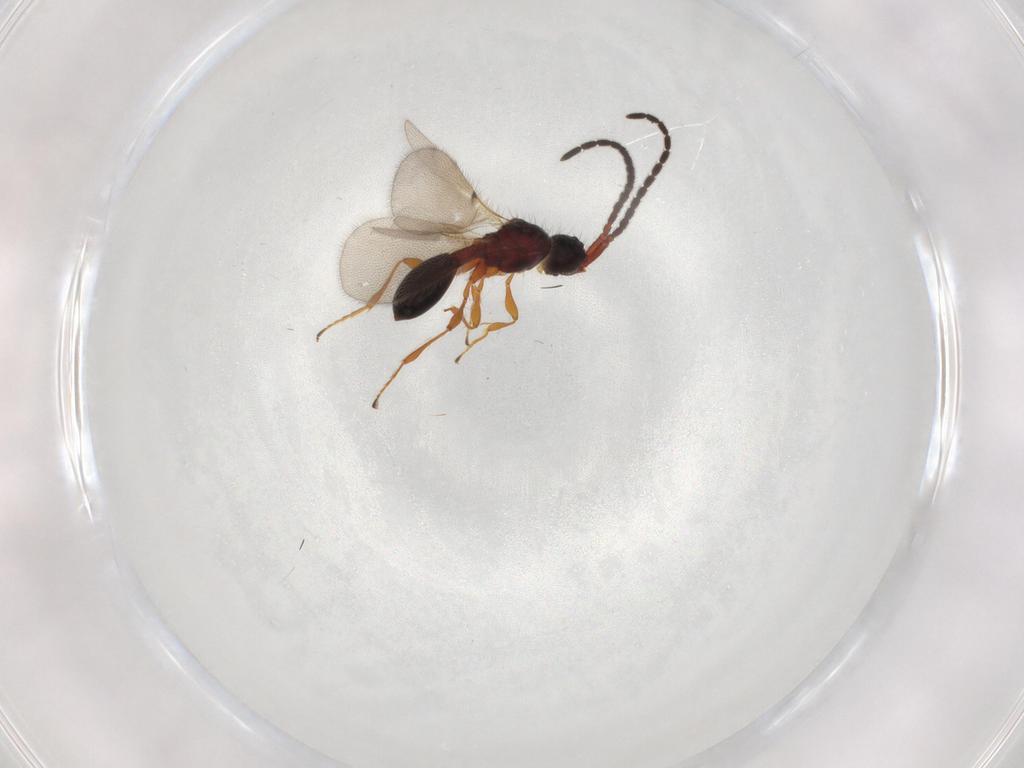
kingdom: Animalia
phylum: Arthropoda
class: Insecta
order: Hymenoptera
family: Diapriidae
